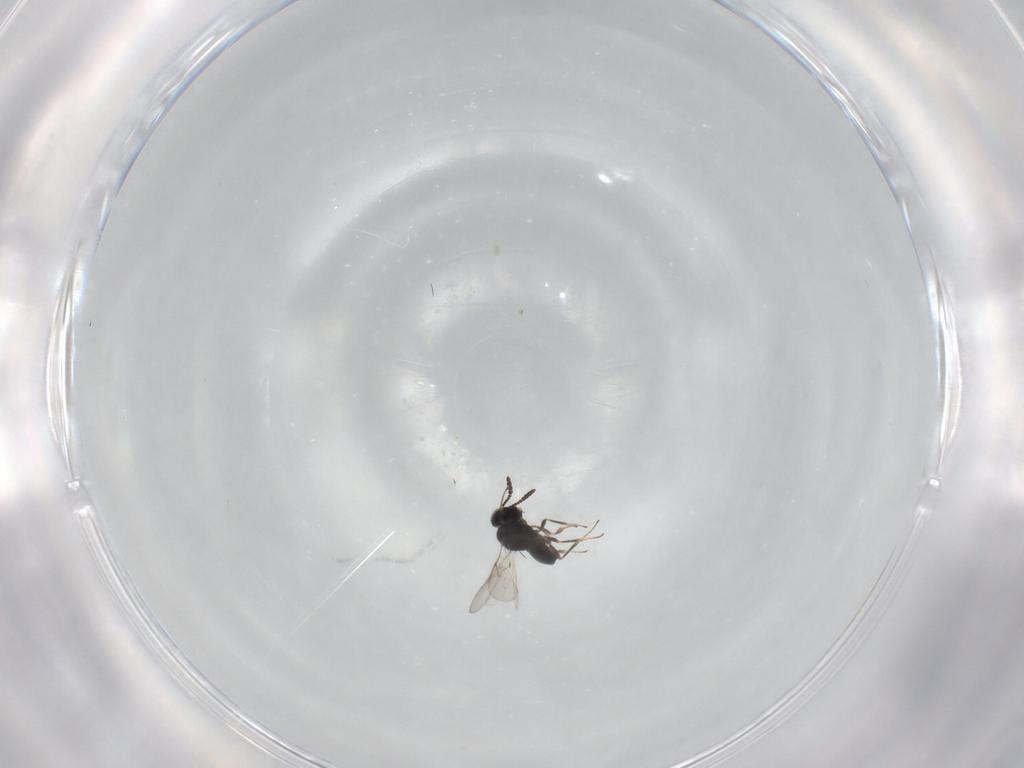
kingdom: Animalia
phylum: Arthropoda
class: Insecta
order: Hymenoptera
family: Scelionidae
